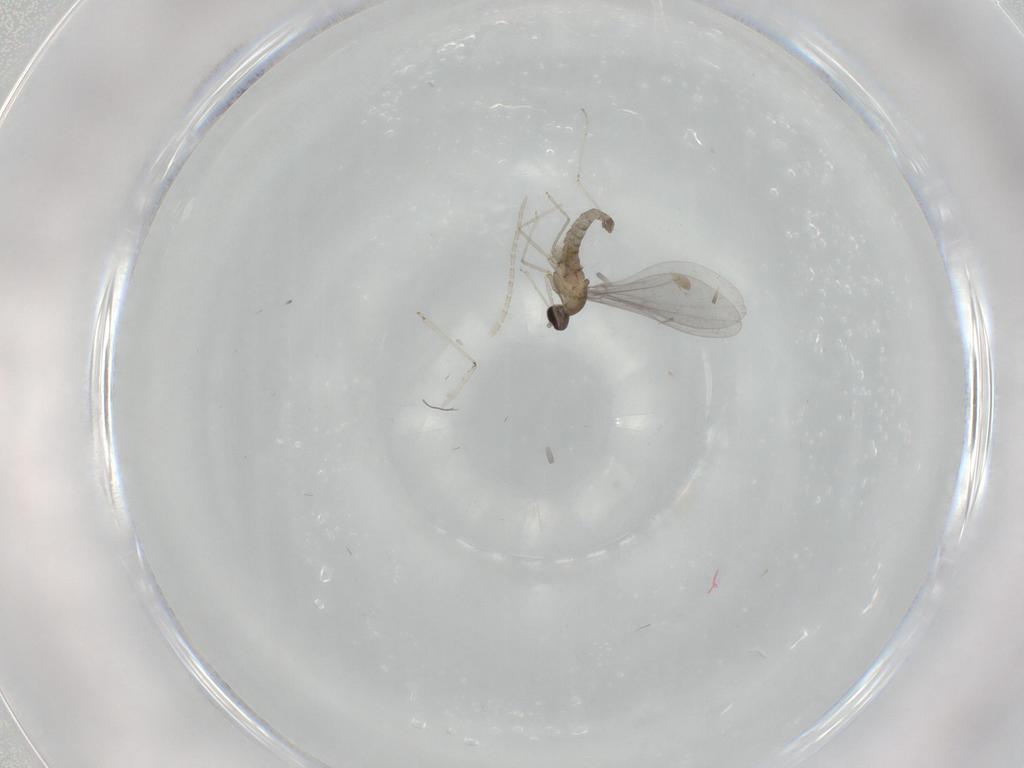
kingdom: Animalia
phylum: Arthropoda
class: Insecta
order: Diptera
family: Cecidomyiidae
